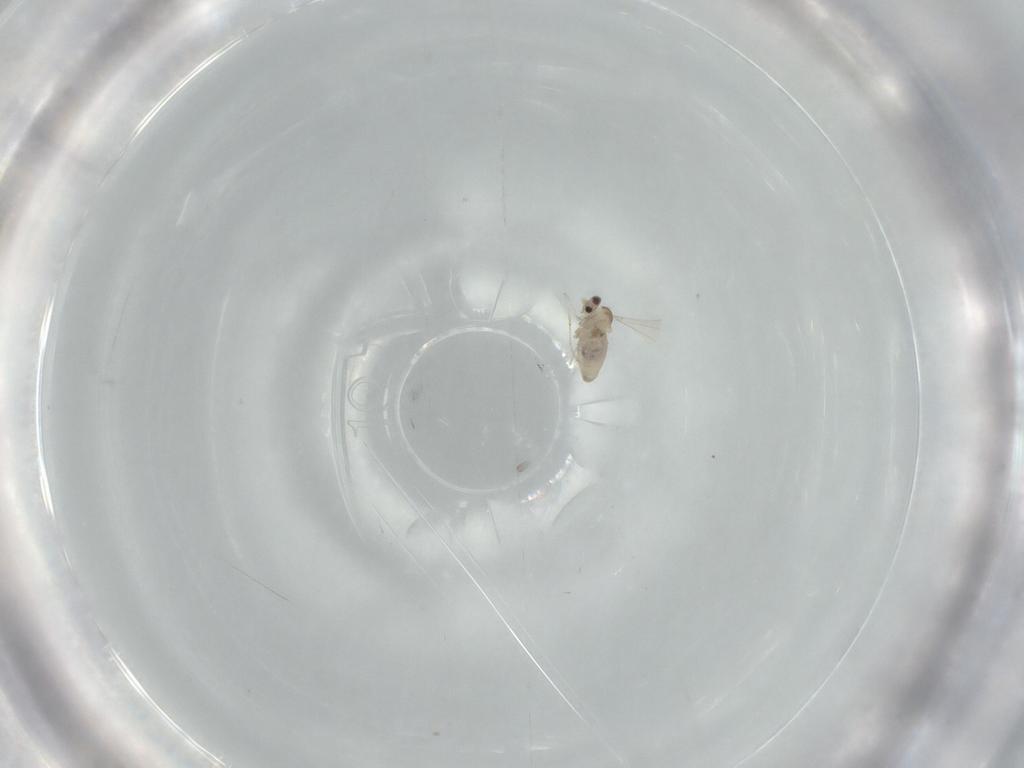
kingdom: Animalia
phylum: Arthropoda
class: Insecta
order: Diptera
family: Cecidomyiidae
